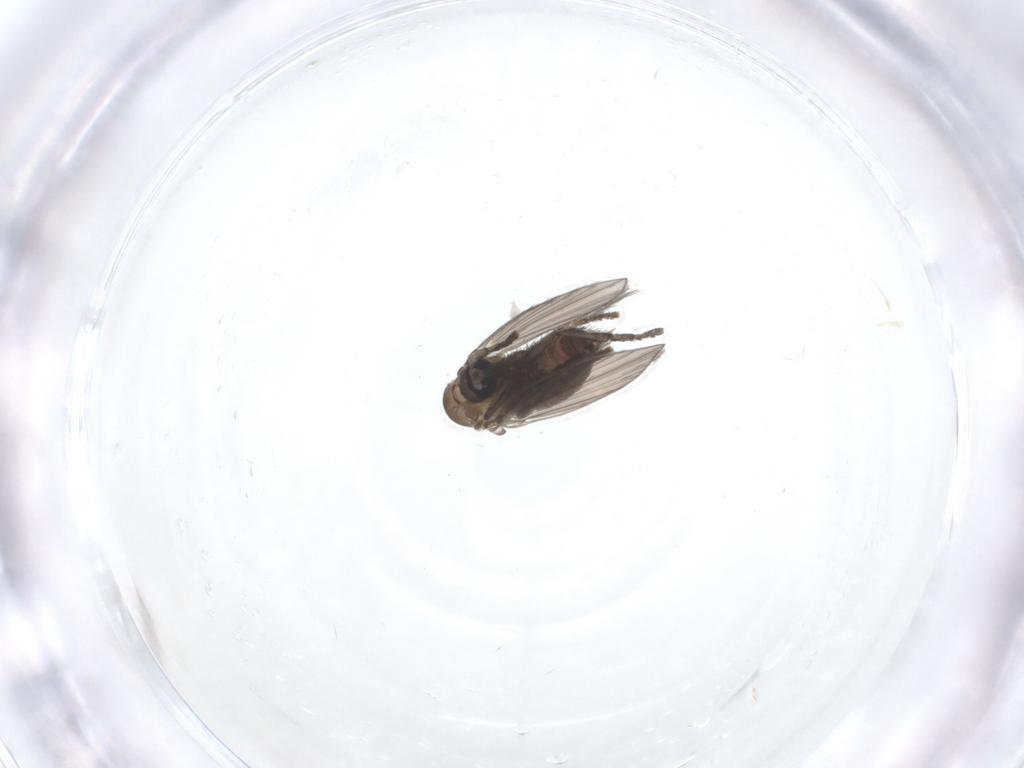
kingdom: Animalia
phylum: Arthropoda
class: Insecta
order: Diptera
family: Psychodidae
